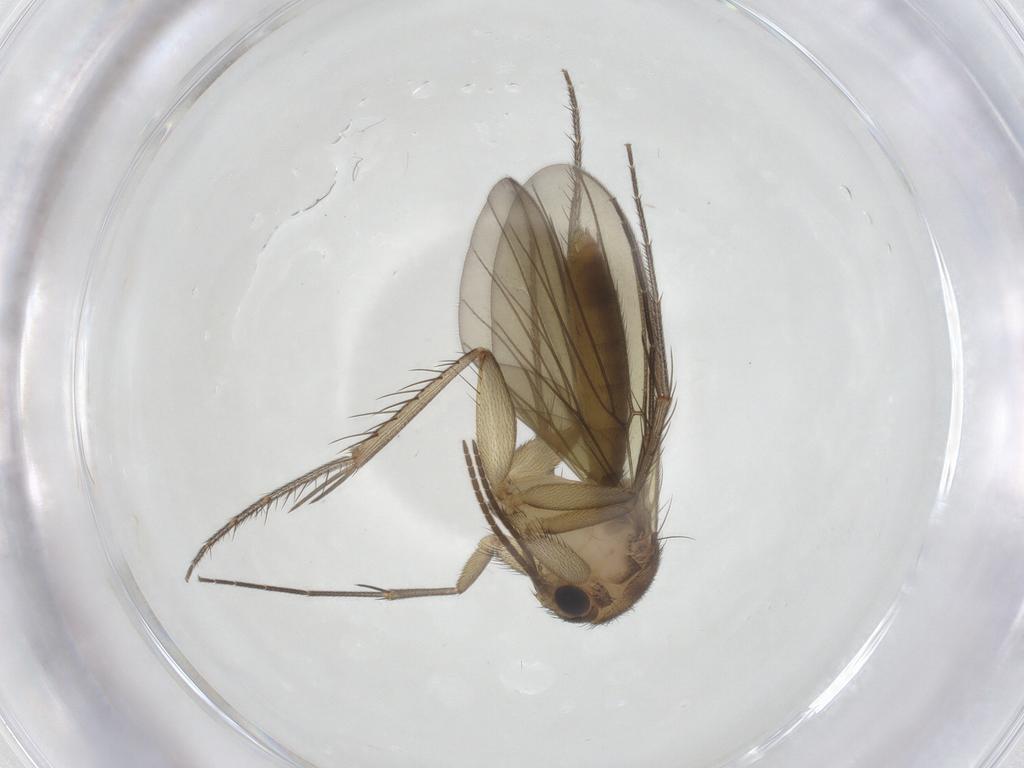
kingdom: Animalia
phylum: Arthropoda
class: Insecta
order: Diptera
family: Mycetophilidae
